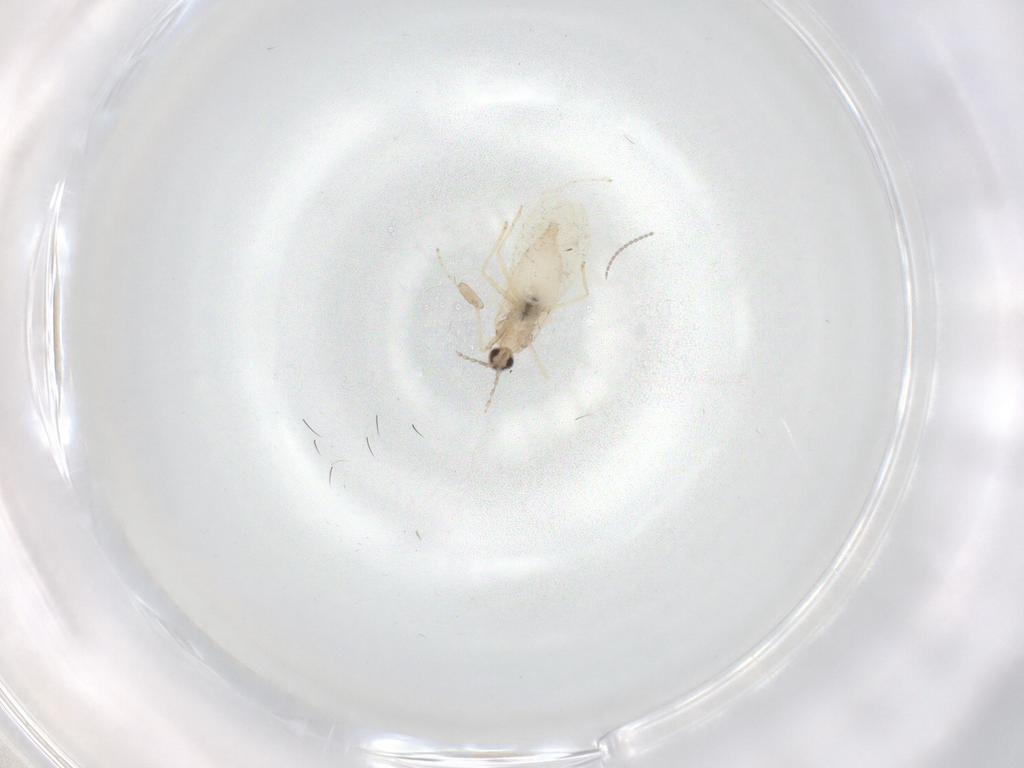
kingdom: Animalia
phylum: Arthropoda
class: Insecta
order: Diptera
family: Cecidomyiidae
